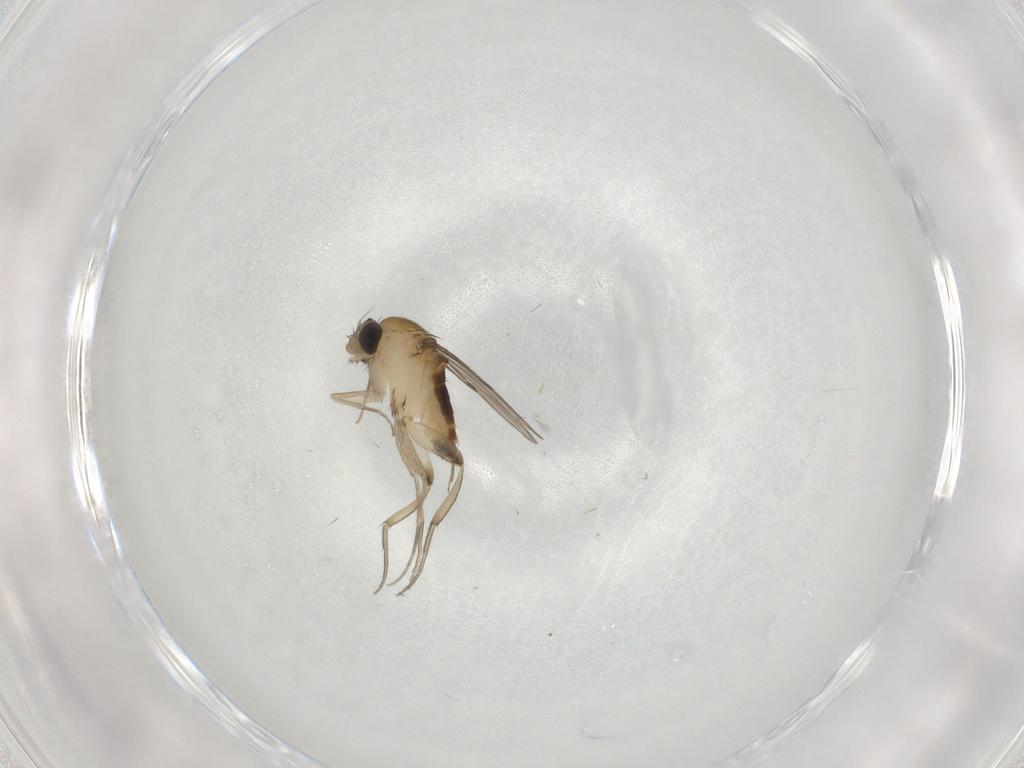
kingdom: Animalia
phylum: Arthropoda
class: Insecta
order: Diptera
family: Phoridae
